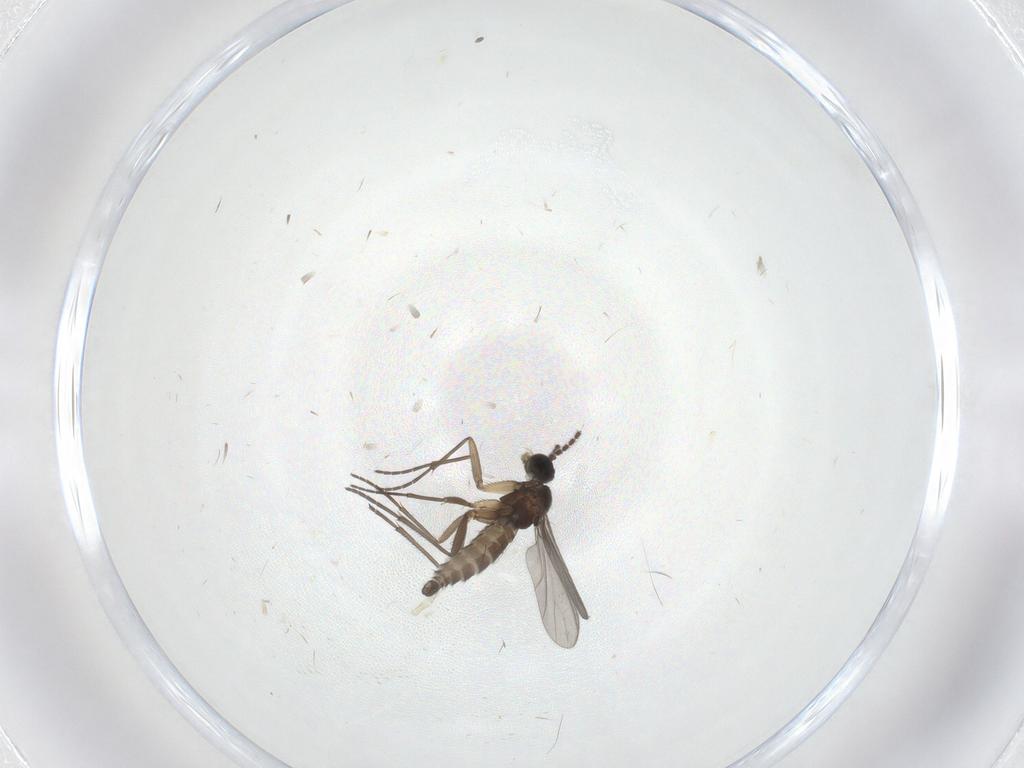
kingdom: Animalia
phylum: Arthropoda
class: Insecta
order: Diptera
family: Sciaridae
